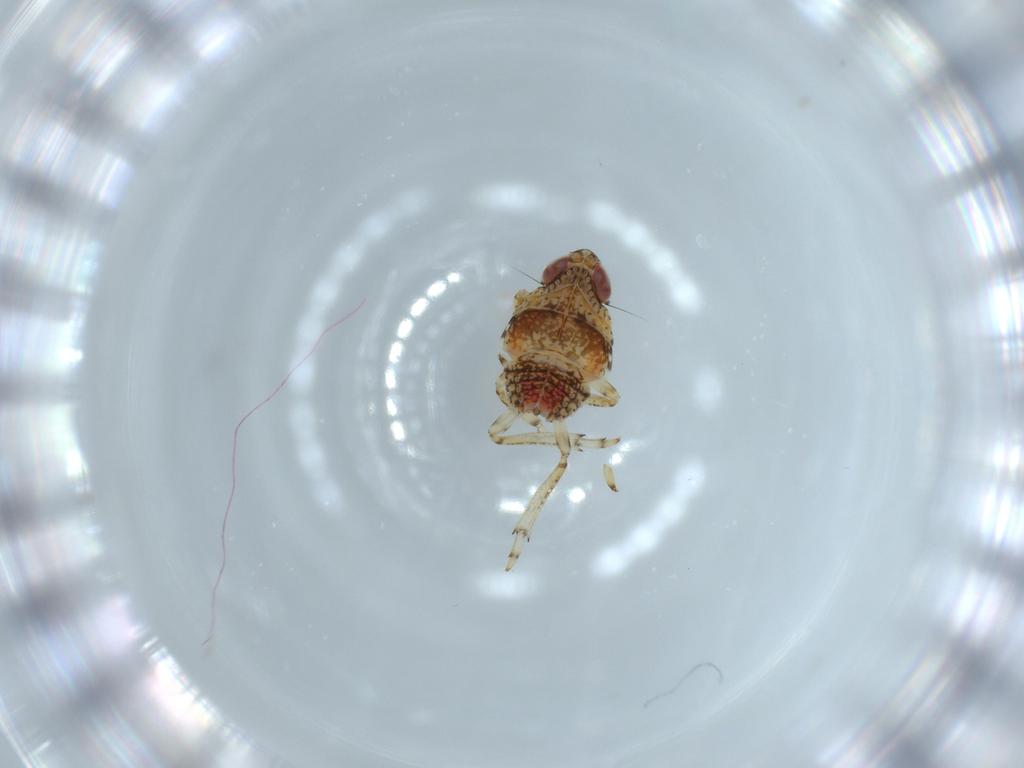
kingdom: Animalia
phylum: Arthropoda
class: Insecta
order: Hemiptera
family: Issidae
